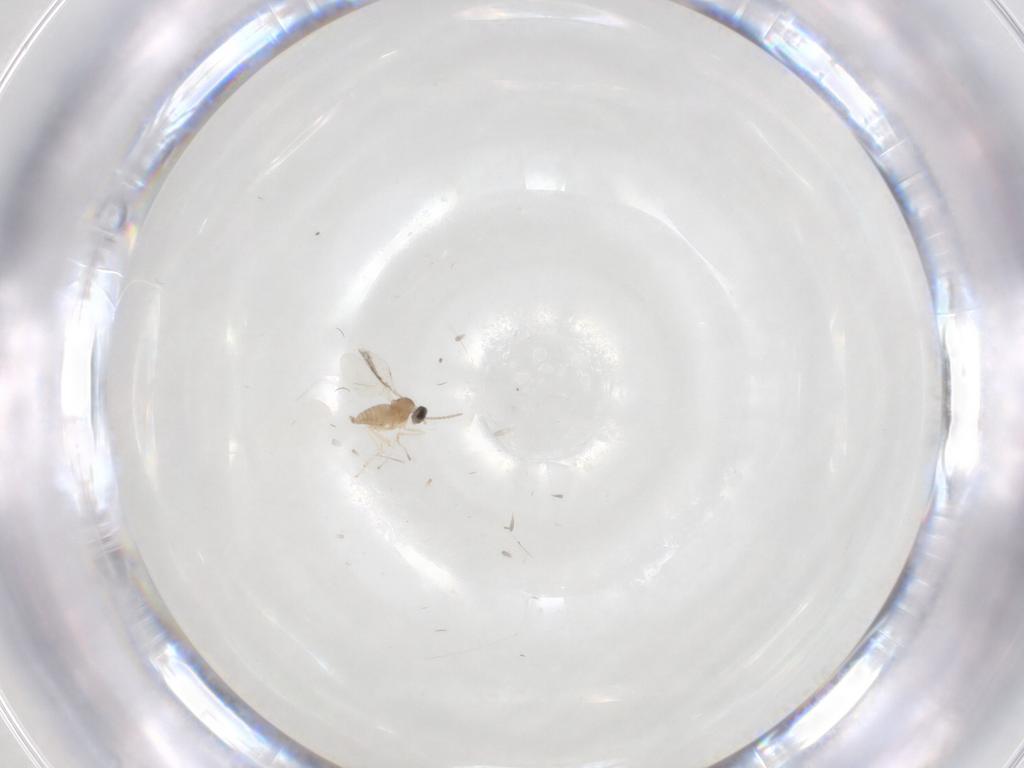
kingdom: Animalia
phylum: Arthropoda
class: Insecta
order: Diptera
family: Cecidomyiidae
